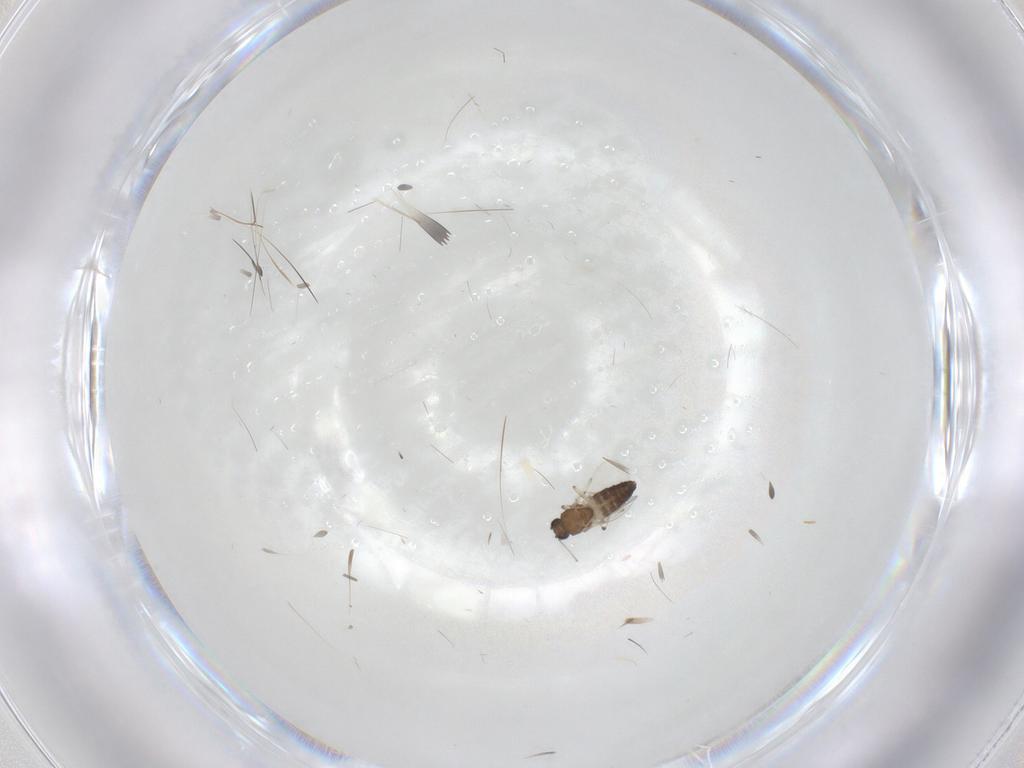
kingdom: Animalia
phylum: Arthropoda
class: Insecta
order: Diptera
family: Ceratopogonidae
